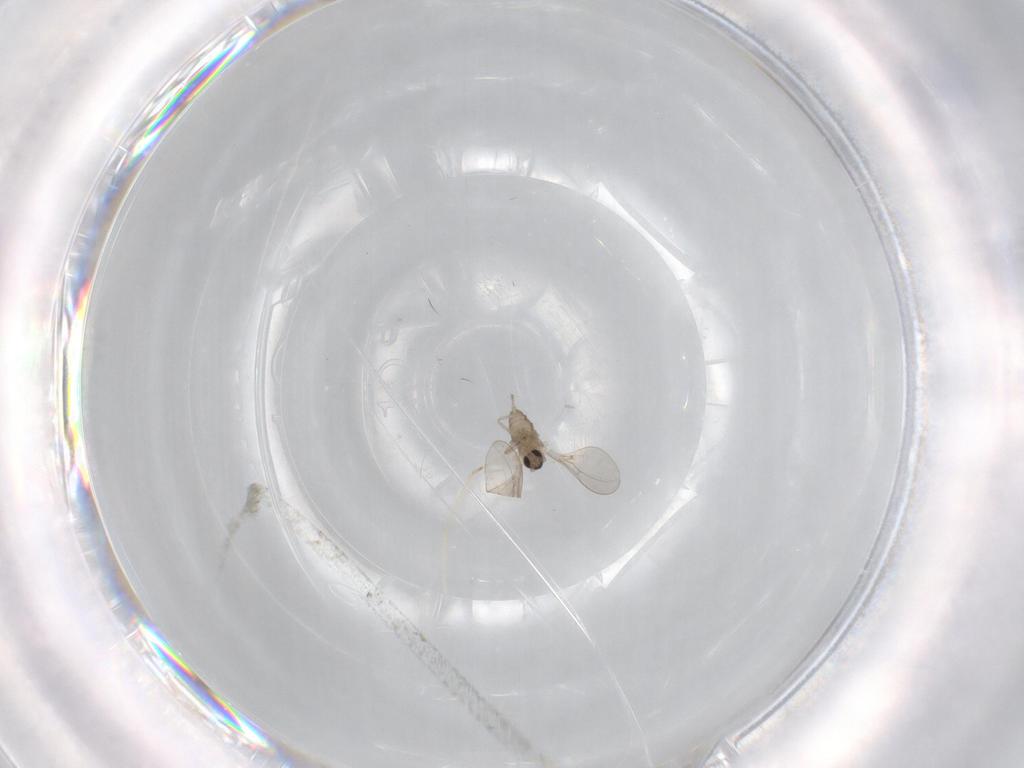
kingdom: Animalia
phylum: Arthropoda
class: Insecta
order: Diptera
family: Cecidomyiidae
